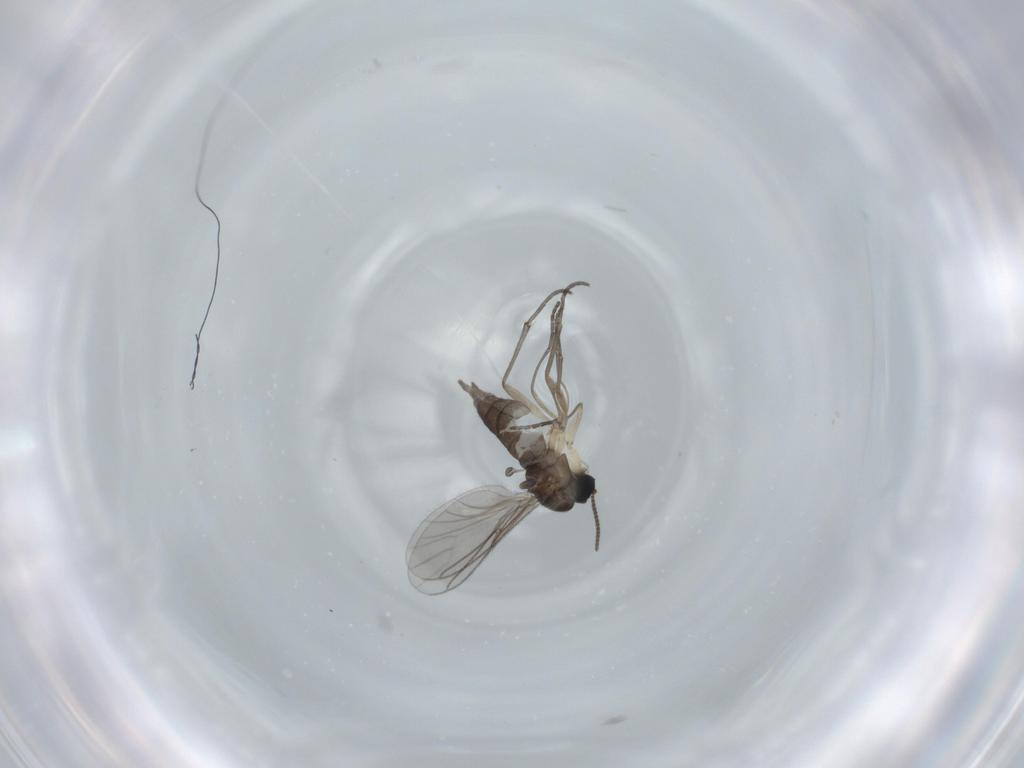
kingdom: Animalia
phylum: Arthropoda
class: Insecta
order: Diptera
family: Sciaridae
